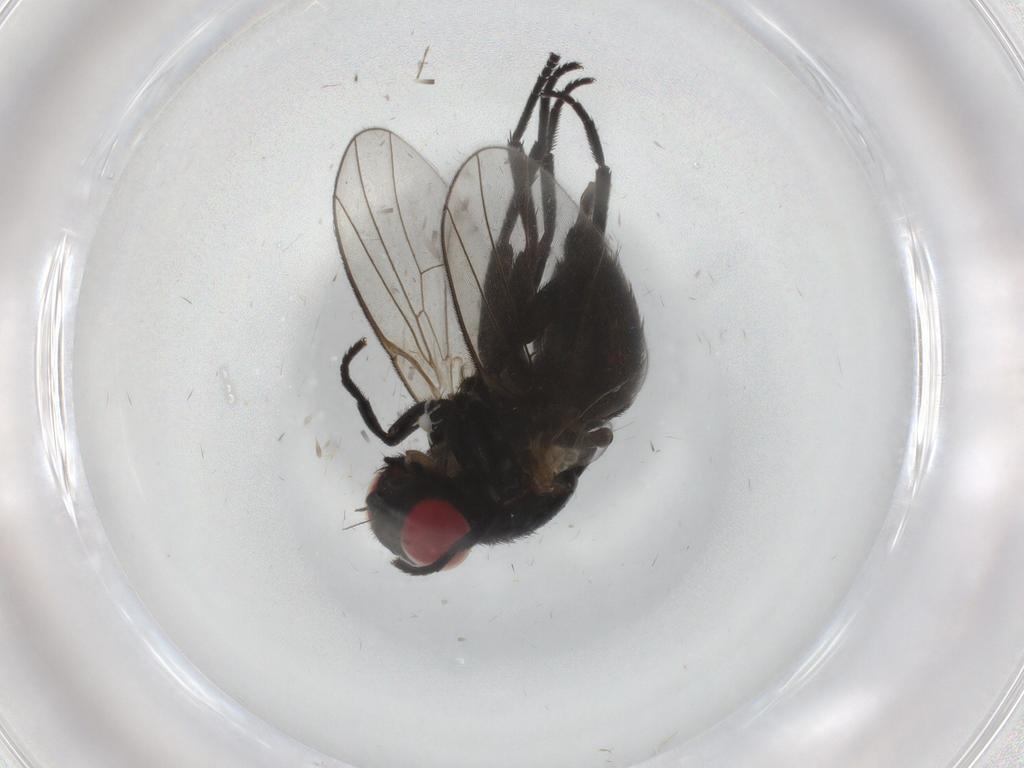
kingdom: Animalia
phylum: Arthropoda
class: Insecta
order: Diptera
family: Agromyzidae
